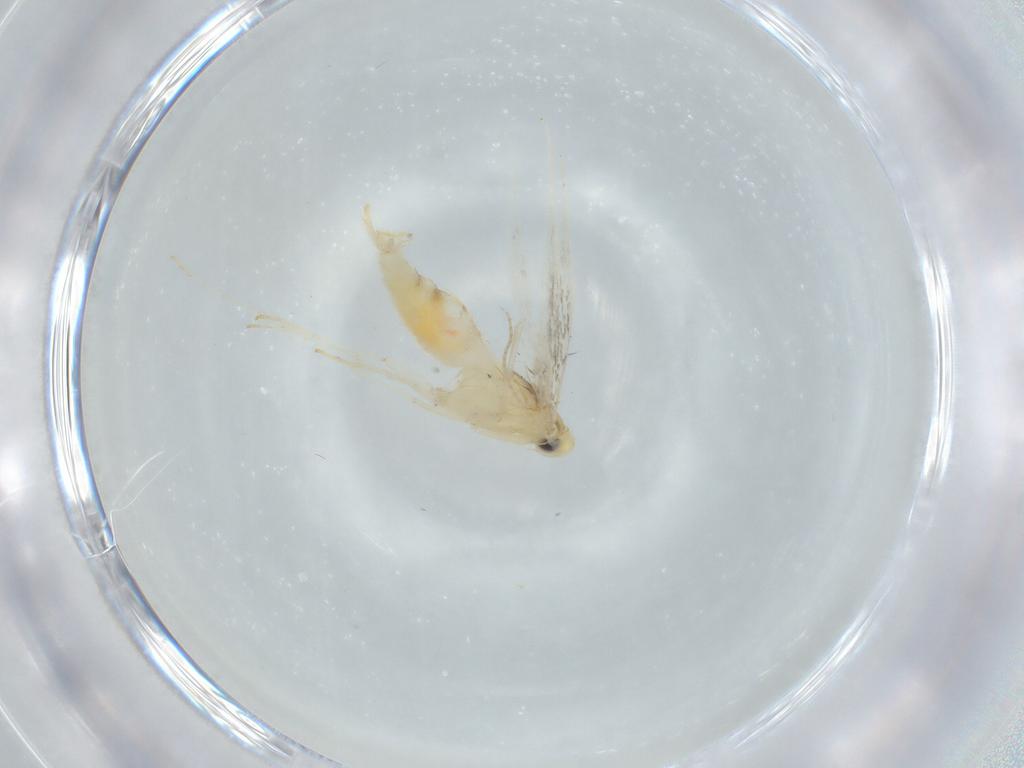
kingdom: Animalia
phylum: Arthropoda
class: Insecta
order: Lepidoptera
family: Gracillariidae
